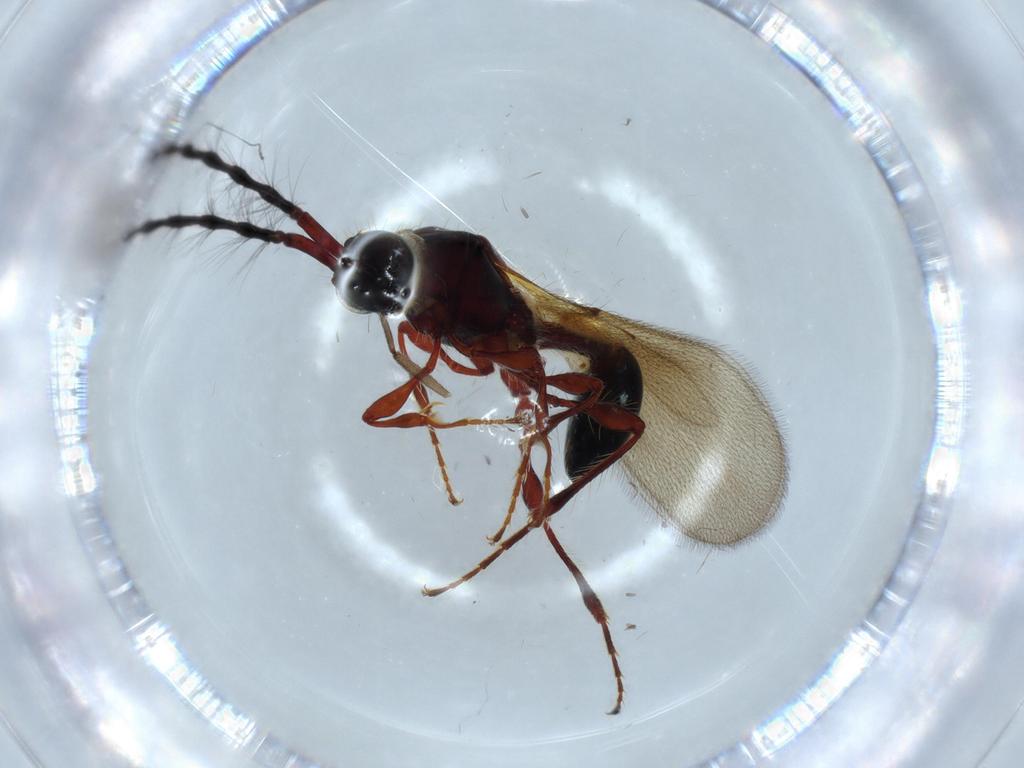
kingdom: Animalia
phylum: Arthropoda
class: Insecta
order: Hymenoptera
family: Diapriidae
